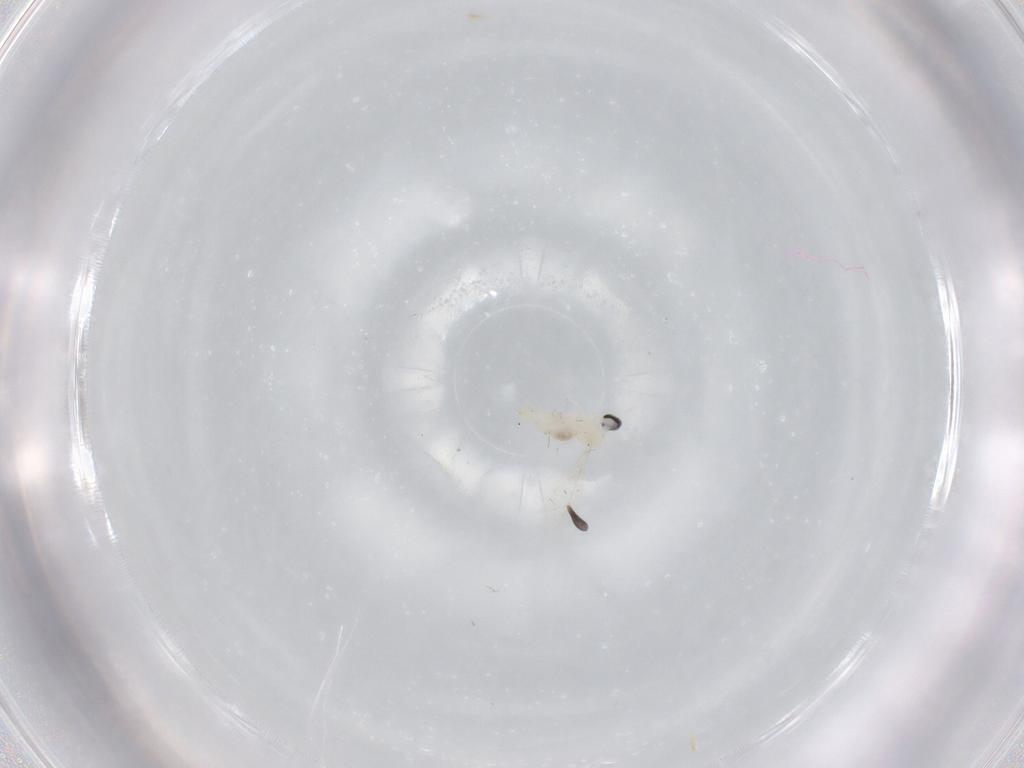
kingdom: Animalia
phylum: Arthropoda
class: Insecta
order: Diptera
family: Cecidomyiidae
